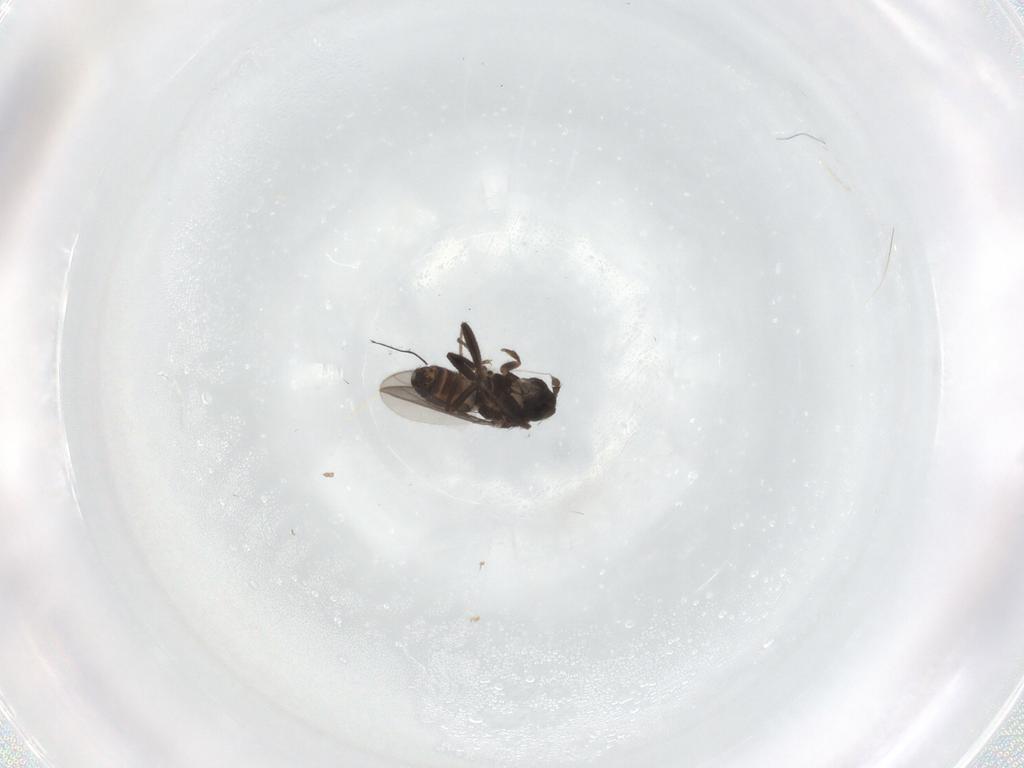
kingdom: Animalia
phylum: Arthropoda
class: Insecta
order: Diptera
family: Sphaeroceridae
